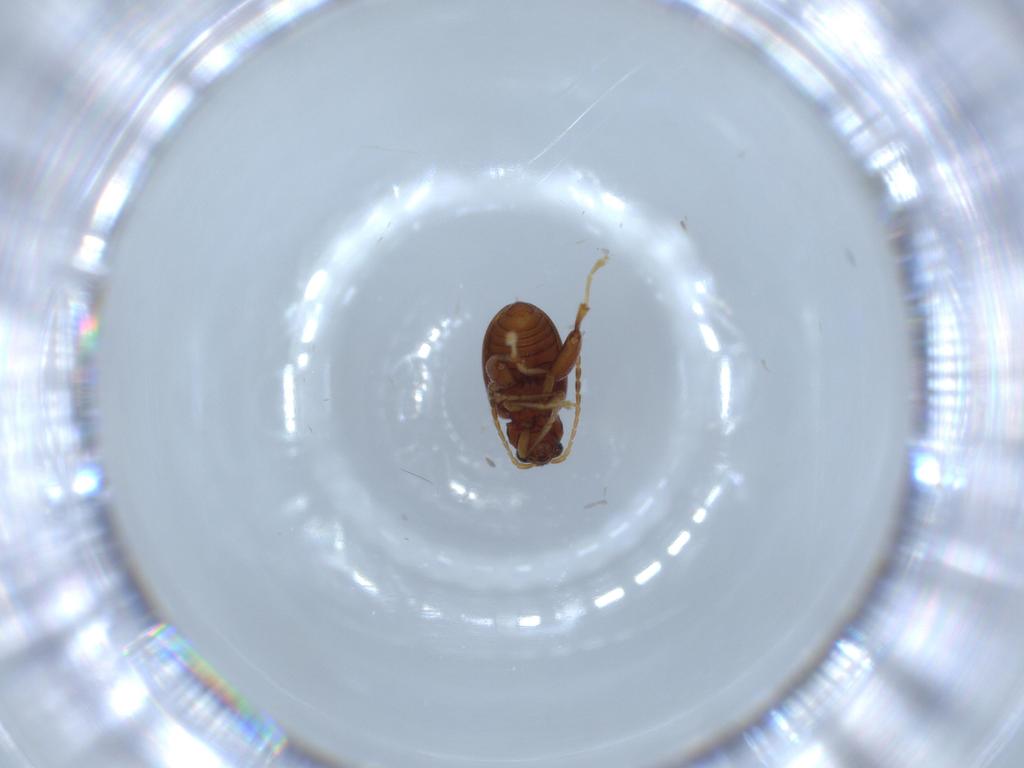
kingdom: Animalia
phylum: Arthropoda
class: Insecta
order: Coleoptera
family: Chrysomelidae
